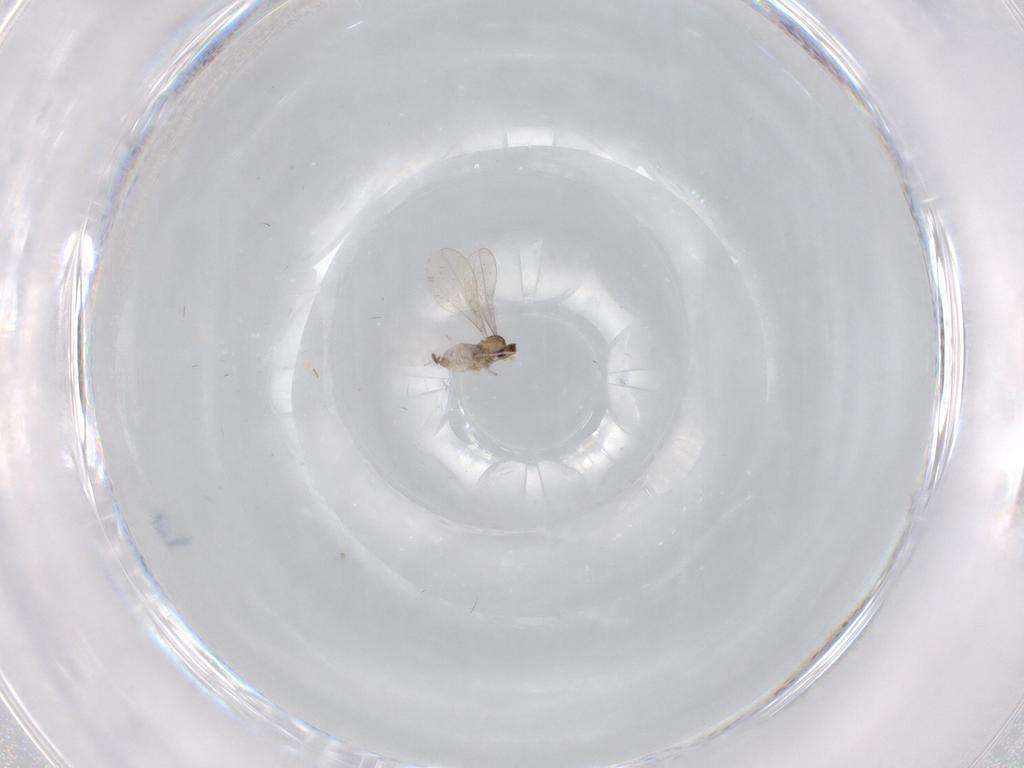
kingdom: Animalia
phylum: Arthropoda
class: Insecta
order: Diptera
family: Cecidomyiidae
